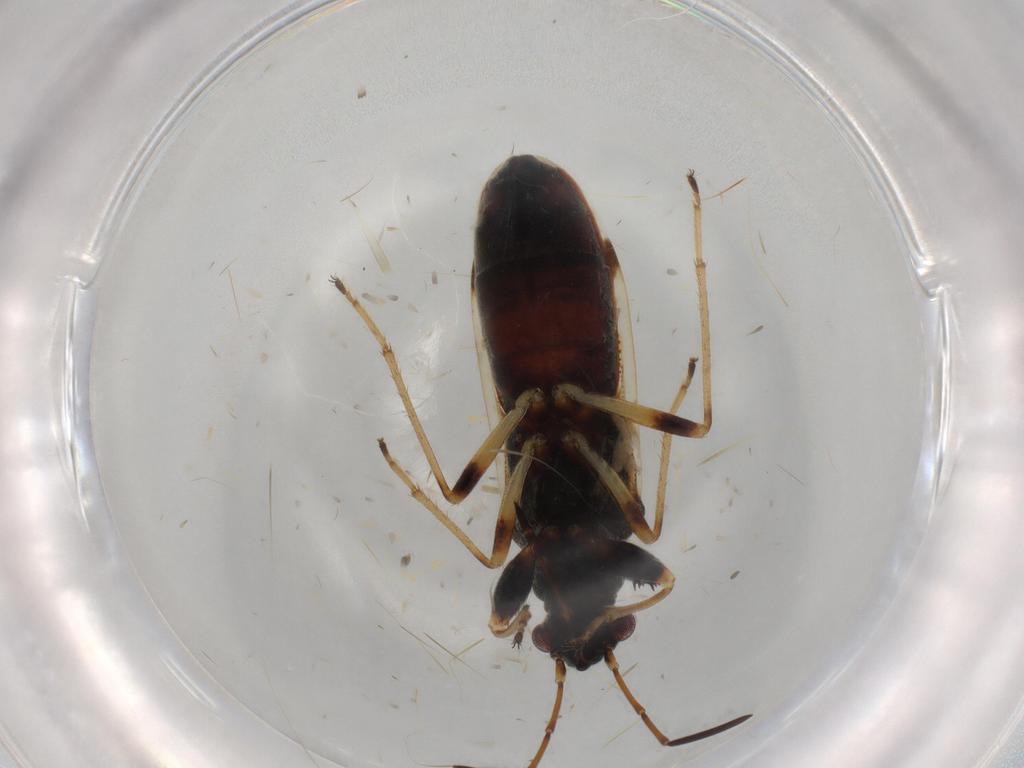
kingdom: Animalia
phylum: Arthropoda
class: Insecta
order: Hemiptera
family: Rhyparochromidae
